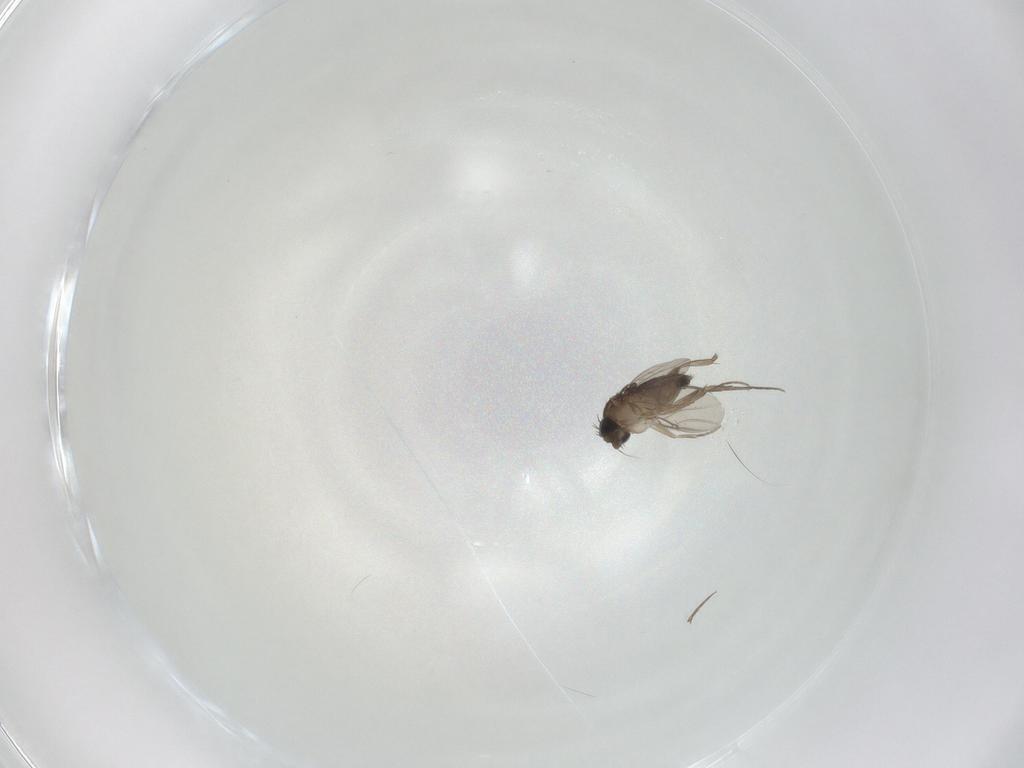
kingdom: Animalia
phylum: Arthropoda
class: Insecta
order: Diptera
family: Phoridae
